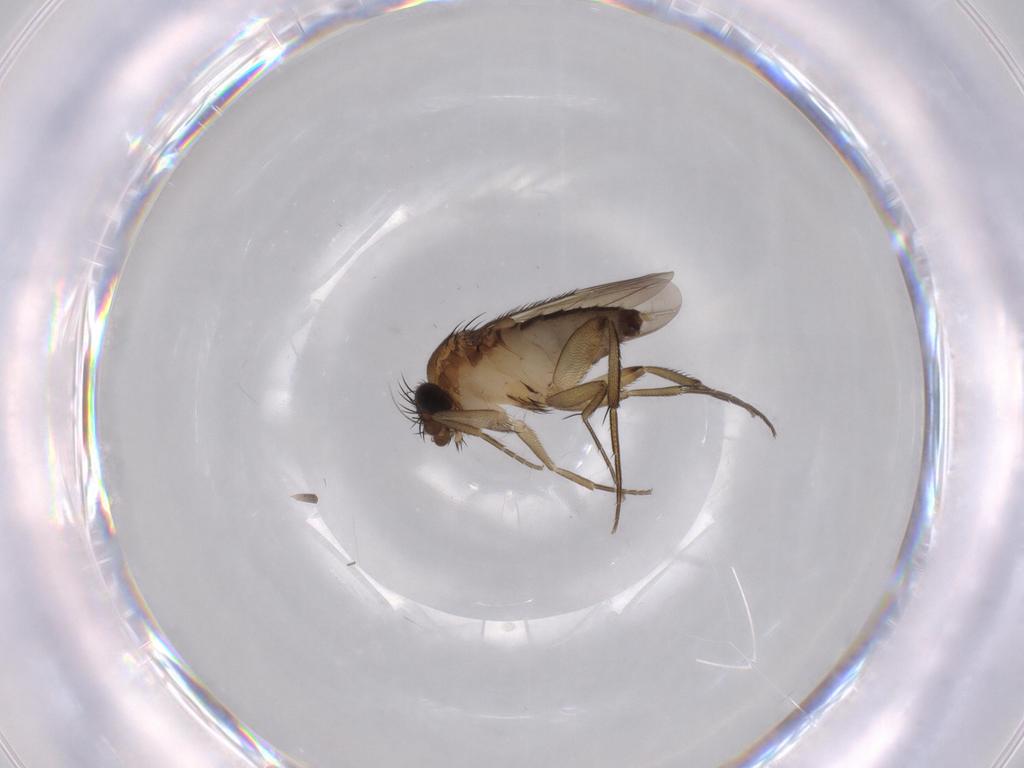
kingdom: Animalia
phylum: Arthropoda
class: Insecta
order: Diptera
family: Phoridae
